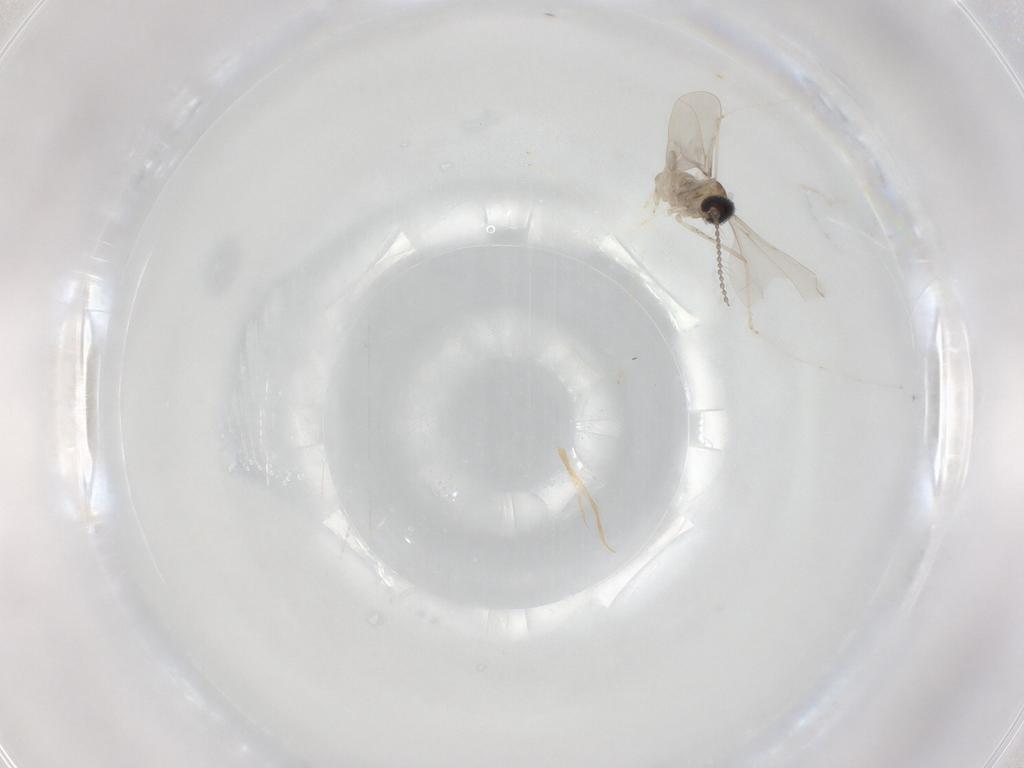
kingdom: Animalia
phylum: Arthropoda
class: Insecta
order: Diptera
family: Cecidomyiidae
